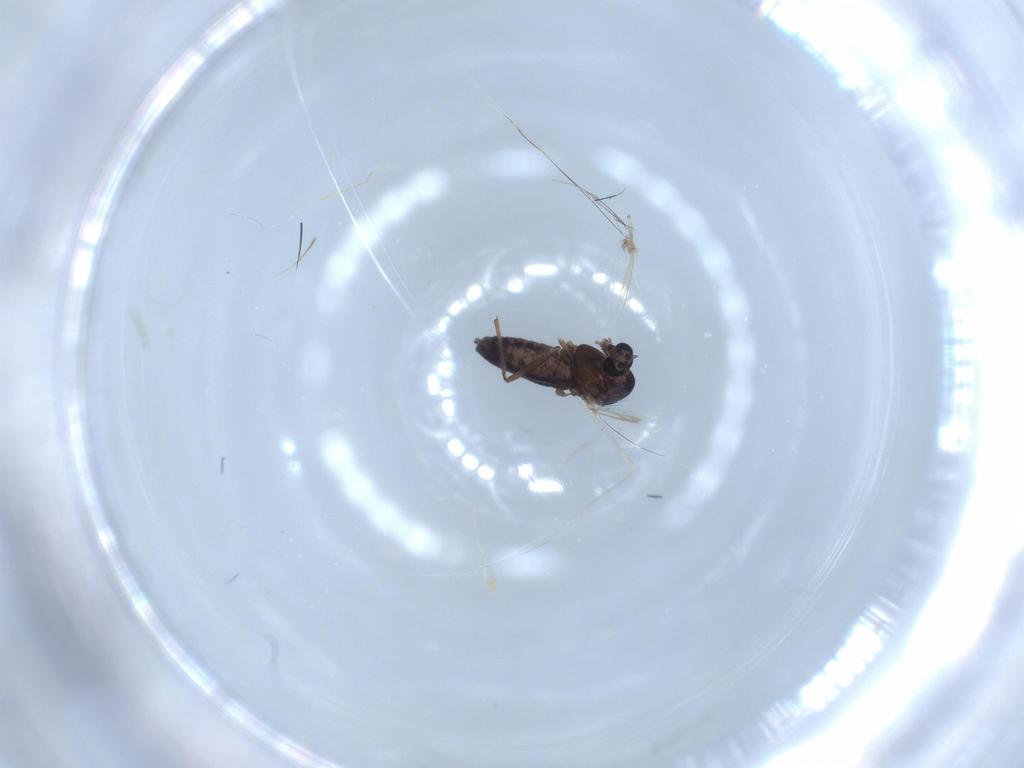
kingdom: Animalia
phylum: Arthropoda
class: Insecta
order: Diptera
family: Chironomidae
